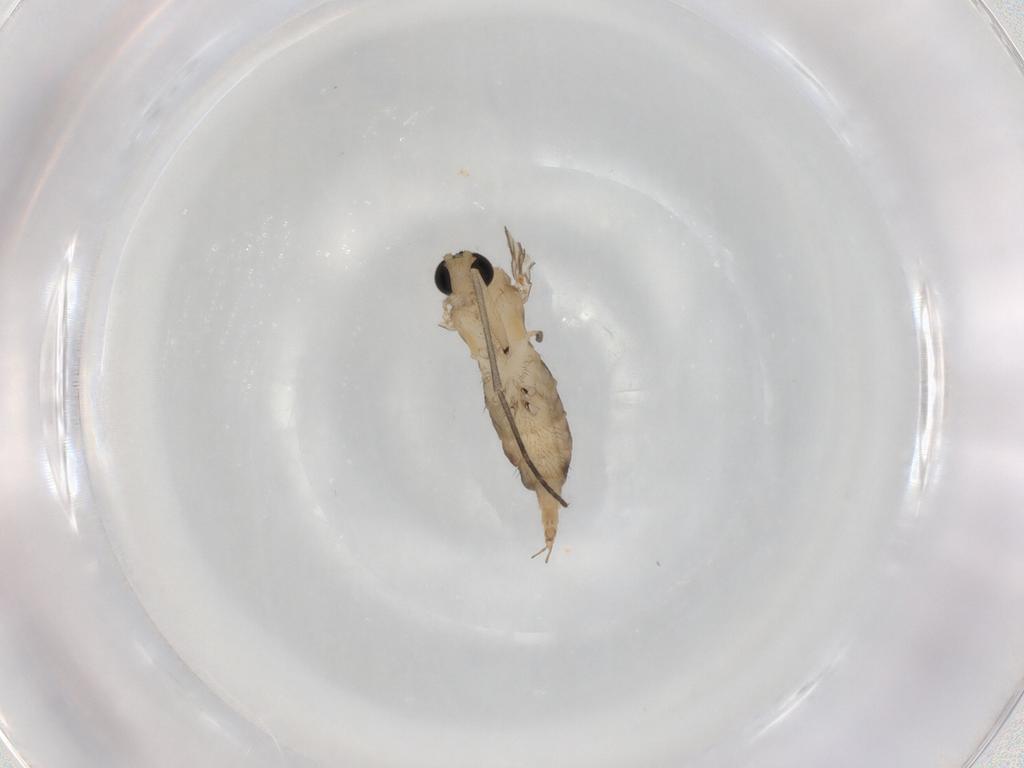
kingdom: Animalia
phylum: Arthropoda
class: Insecta
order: Diptera
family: Sciaridae
